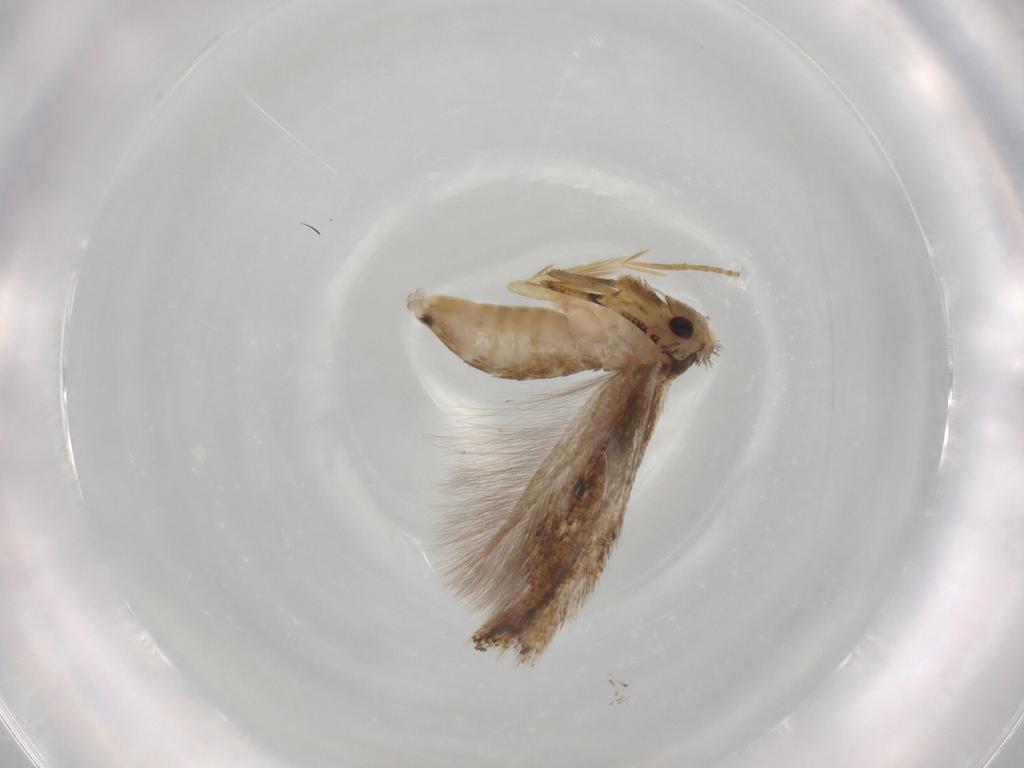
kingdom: Animalia
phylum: Arthropoda
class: Insecta
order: Lepidoptera
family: Bucculatricidae
